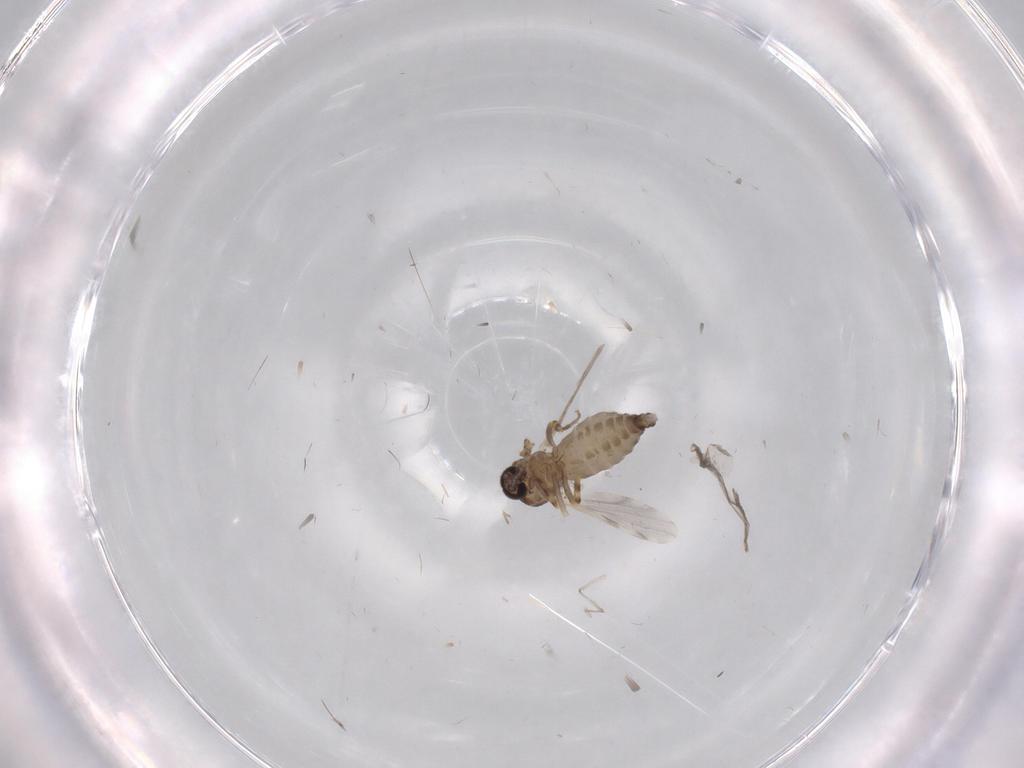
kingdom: Animalia
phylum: Arthropoda
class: Insecta
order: Diptera
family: Ceratopogonidae
